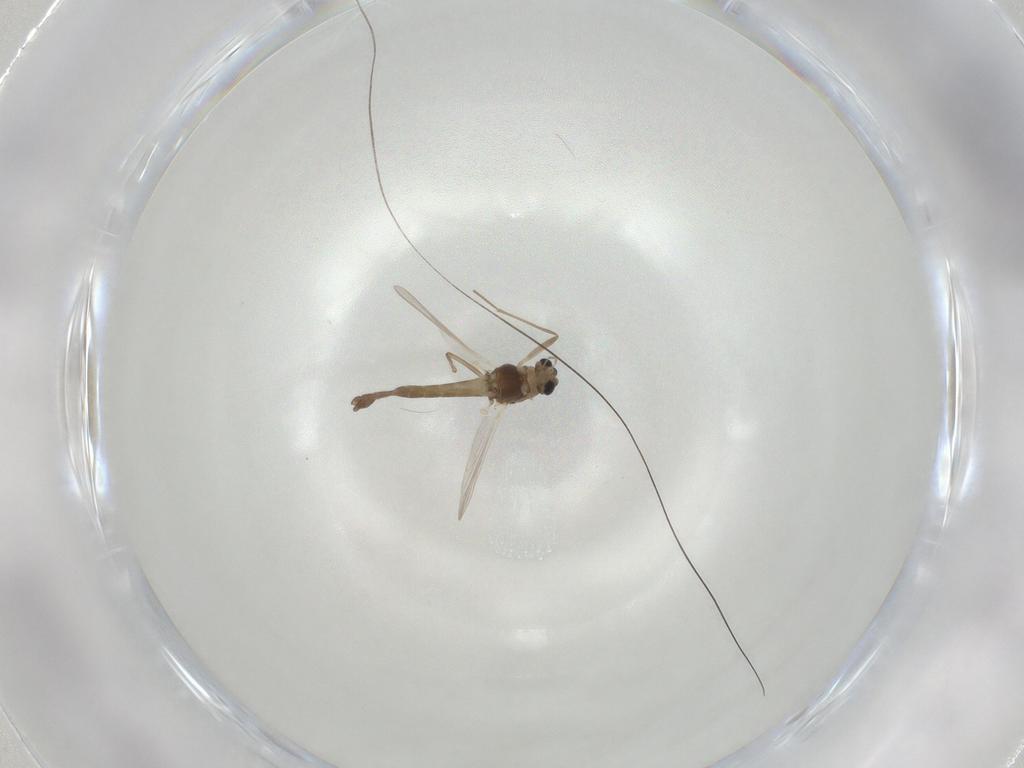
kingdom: Animalia
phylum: Arthropoda
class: Insecta
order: Diptera
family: Chironomidae
